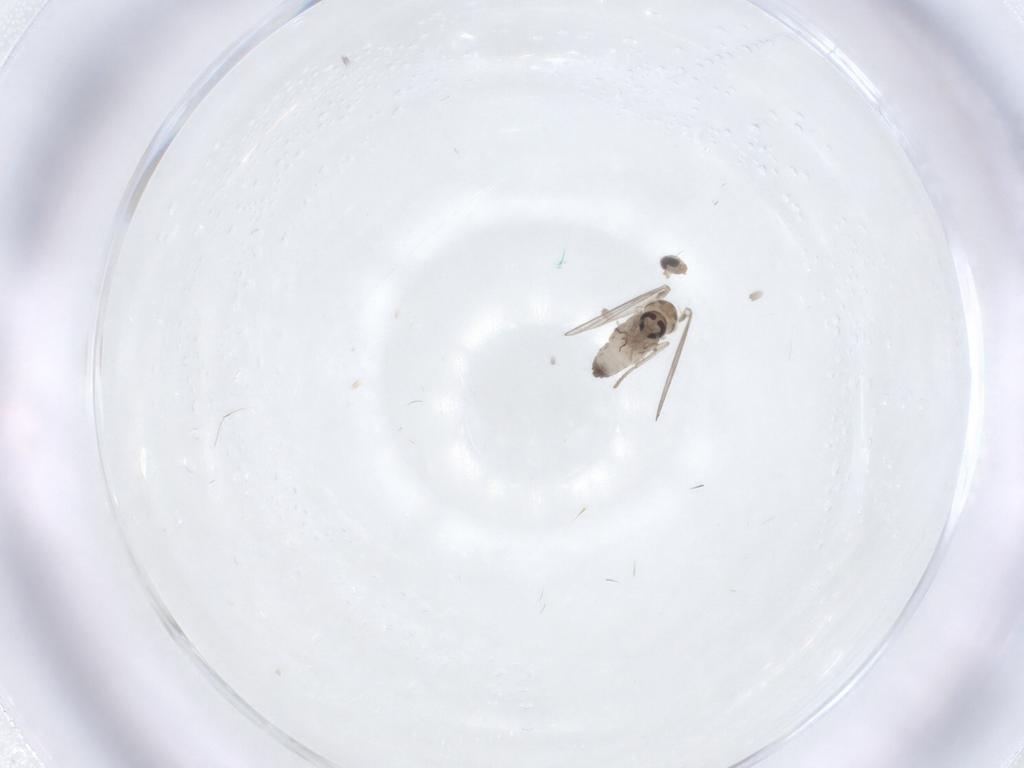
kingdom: Animalia
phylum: Arthropoda
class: Insecta
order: Diptera
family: Psychodidae
